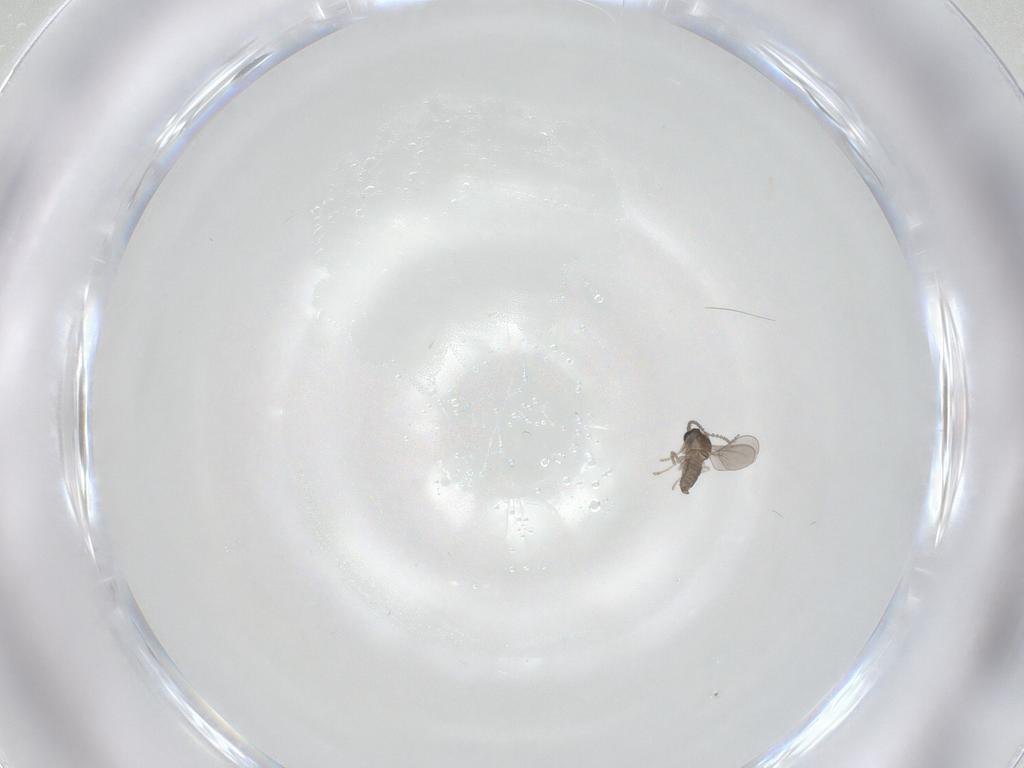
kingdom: Animalia
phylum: Arthropoda
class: Insecta
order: Diptera
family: Cecidomyiidae
